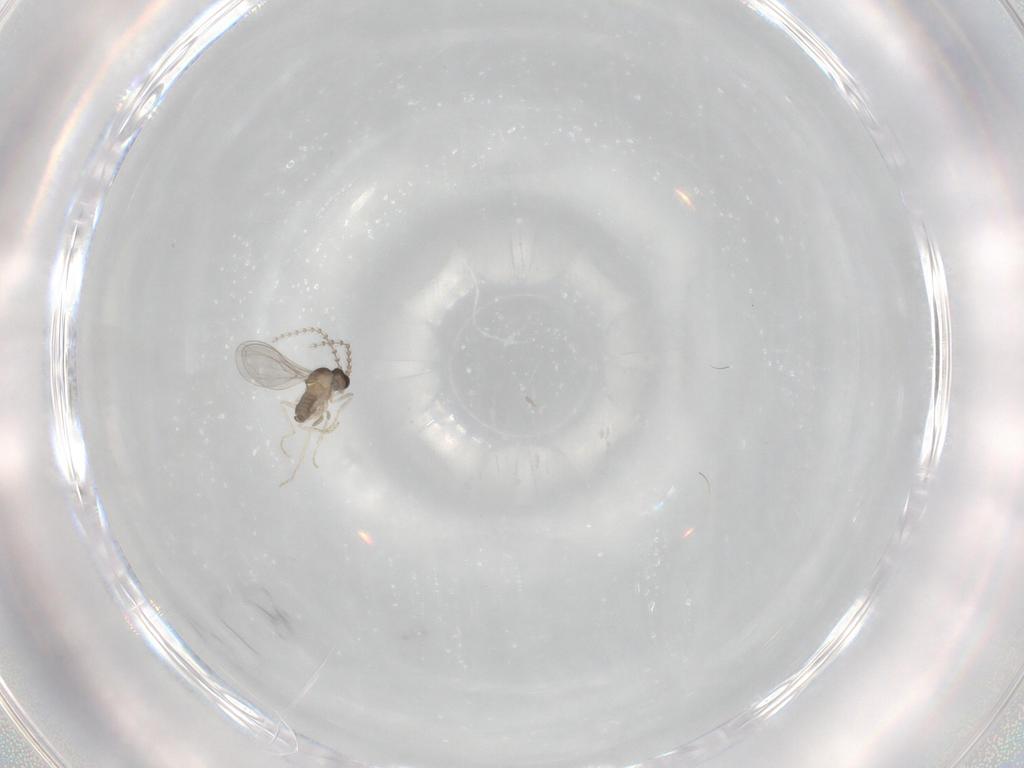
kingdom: Animalia
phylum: Arthropoda
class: Insecta
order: Diptera
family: Cecidomyiidae
